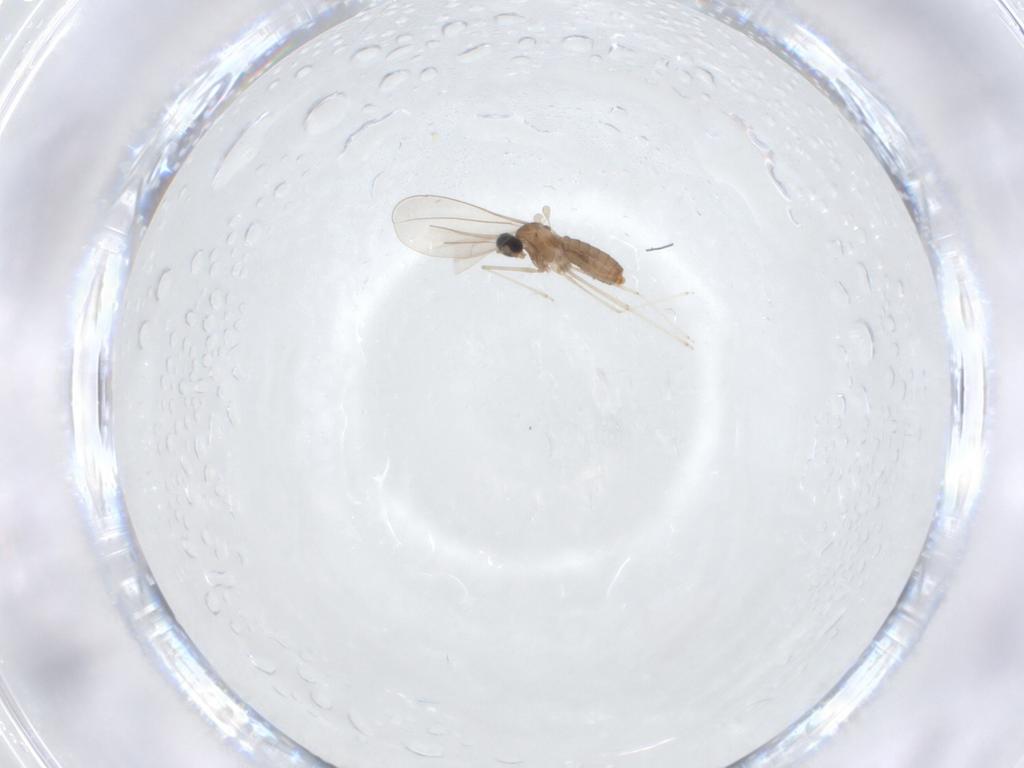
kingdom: Animalia
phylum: Arthropoda
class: Insecta
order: Diptera
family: Cecidomyiidae
